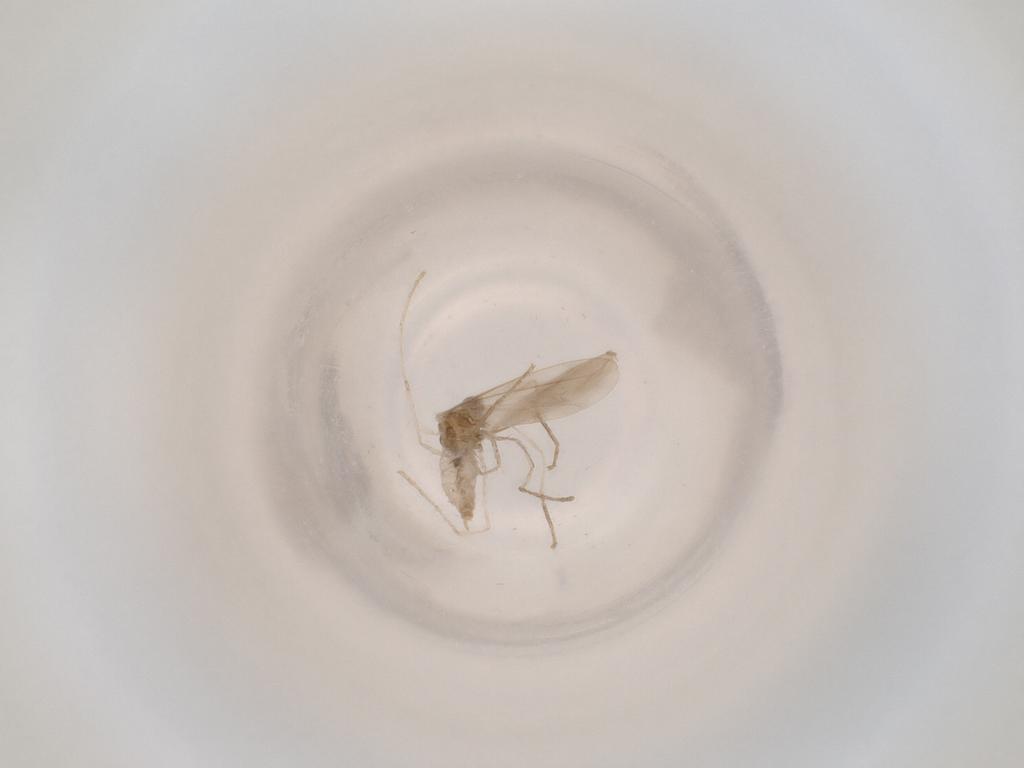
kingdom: Animalia
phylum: Arthropoda
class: Insecta
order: Diptera
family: Cecidomyiidae
